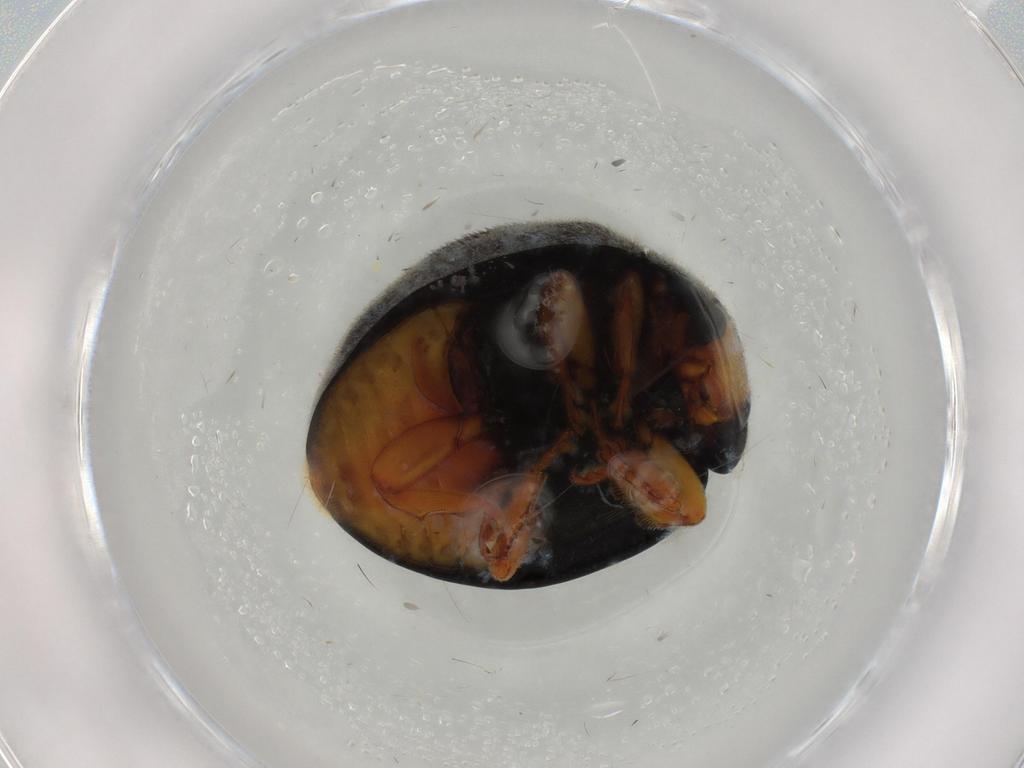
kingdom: Animalia
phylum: Arthropoda
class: Insecta
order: Coleoptera
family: Coccinellidae
